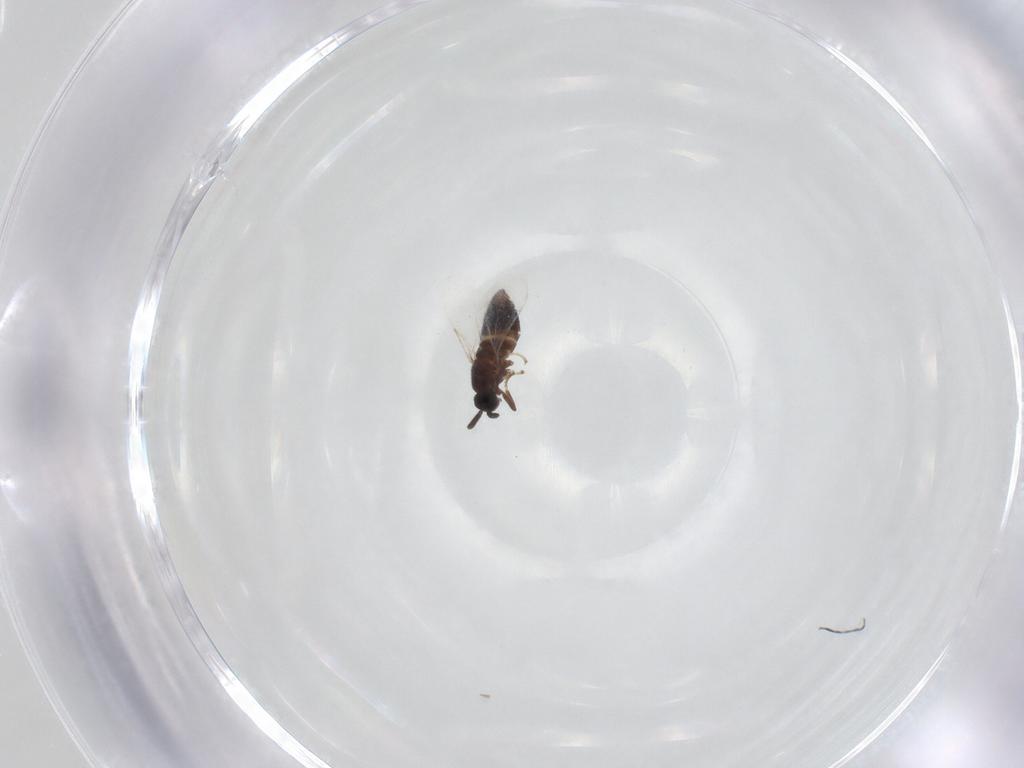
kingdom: Animalia
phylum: Arthropoda
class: Insecta
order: Diptera
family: Scatopsidae
